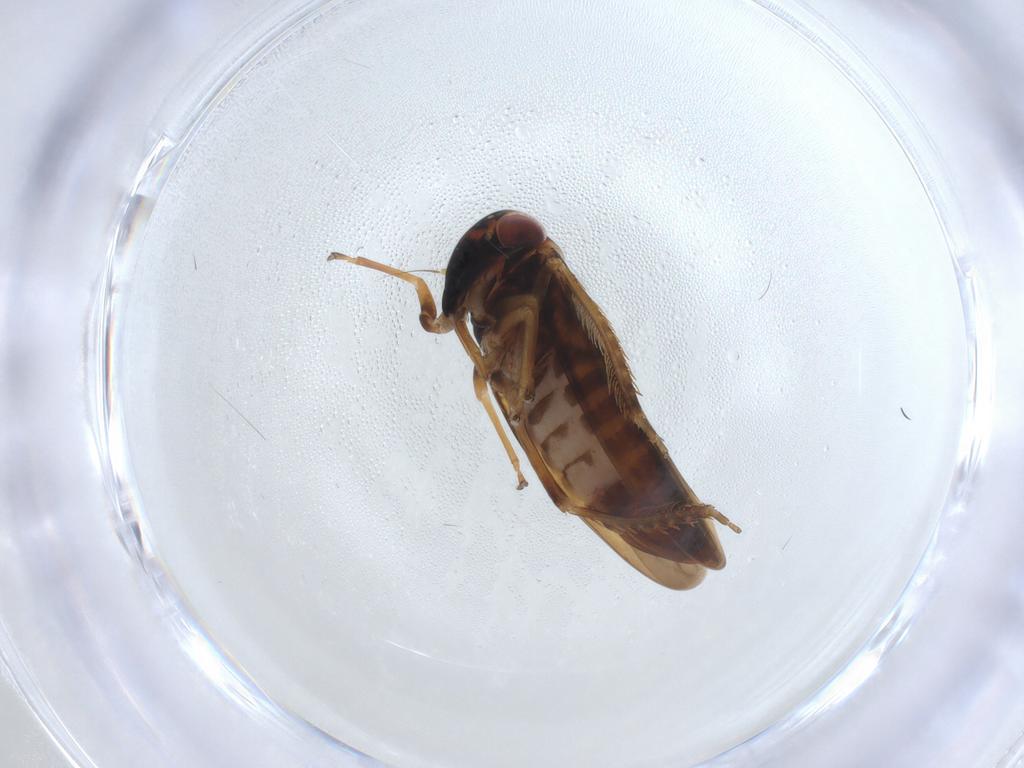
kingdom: Animalia
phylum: Arthropoda
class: Insecta
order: Hemiptera
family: Cicadellidae
